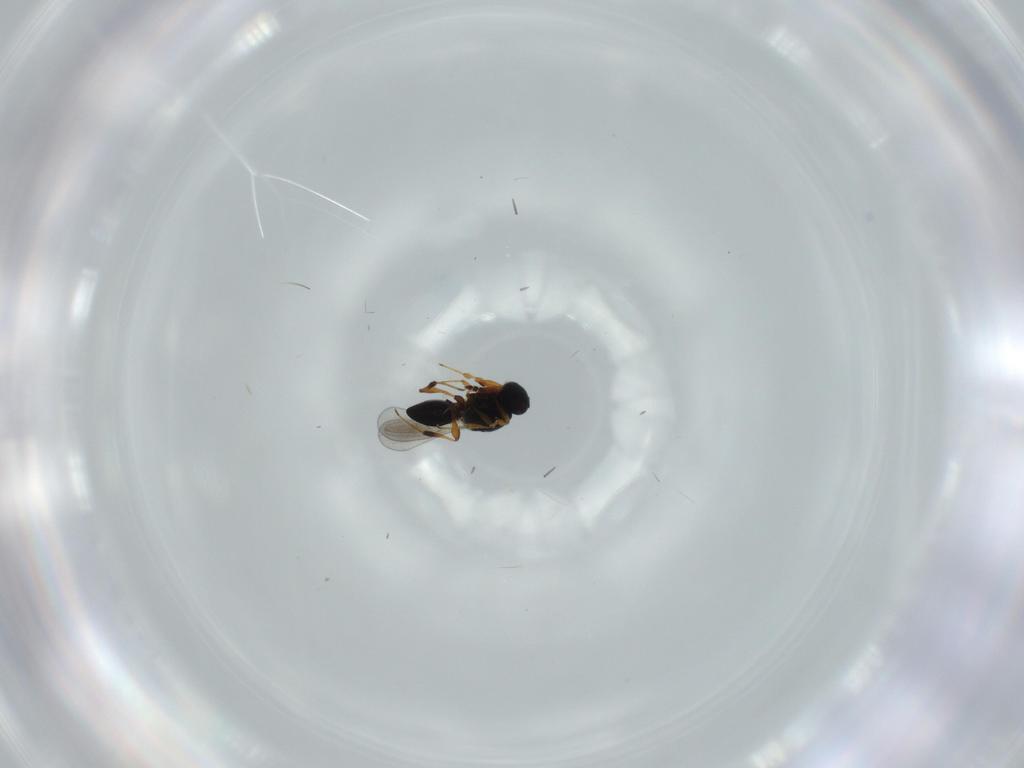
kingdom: Animalia
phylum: Arthropoda
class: Insecta
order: Hymenoptera
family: Platygastridae
